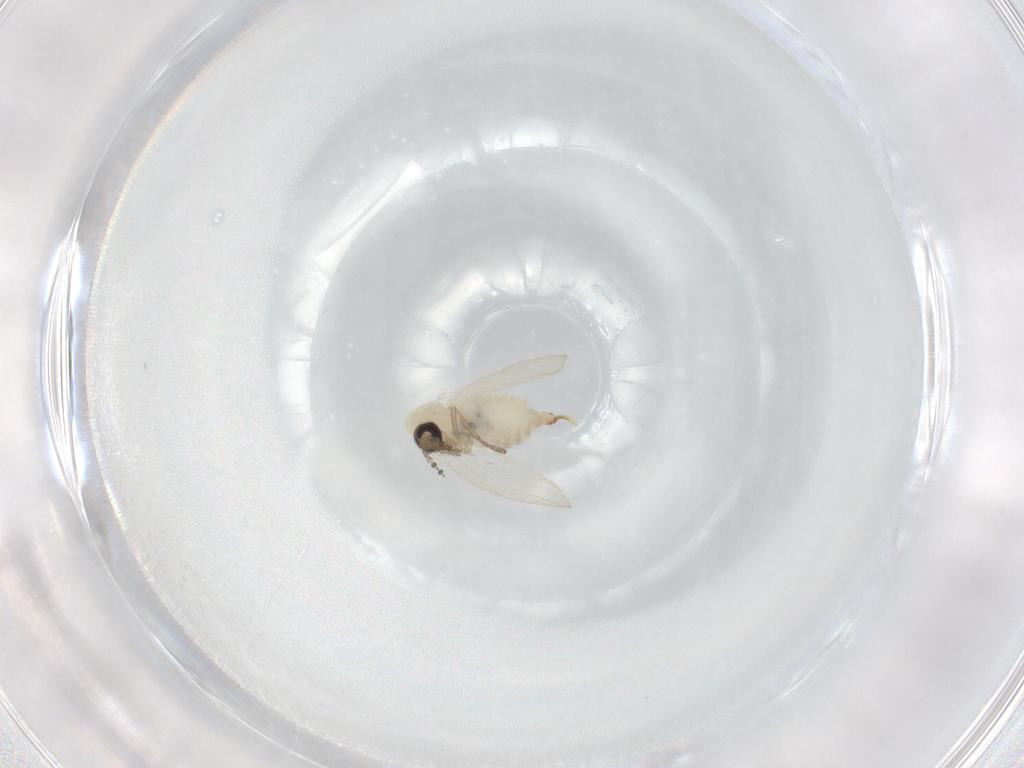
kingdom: Animalia
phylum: Arthropoda
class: Insecta
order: Diptera
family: Psychodidae
